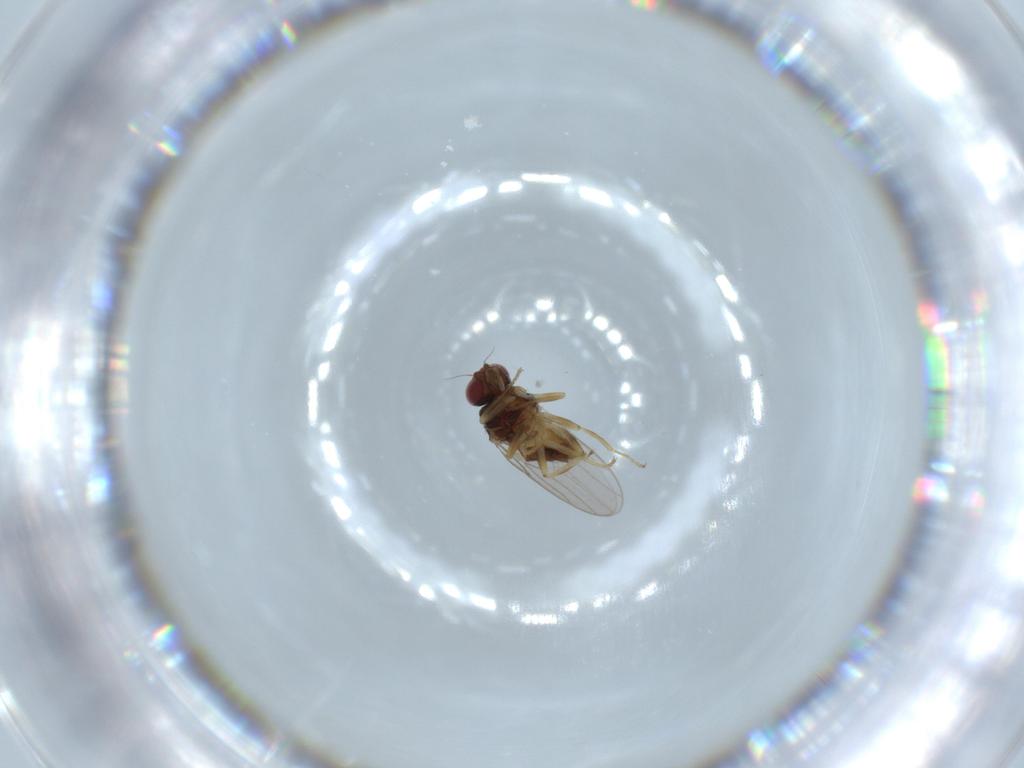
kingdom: Animalia
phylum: Arthropoda
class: Insecta
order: Diptera
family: Chloropidae
